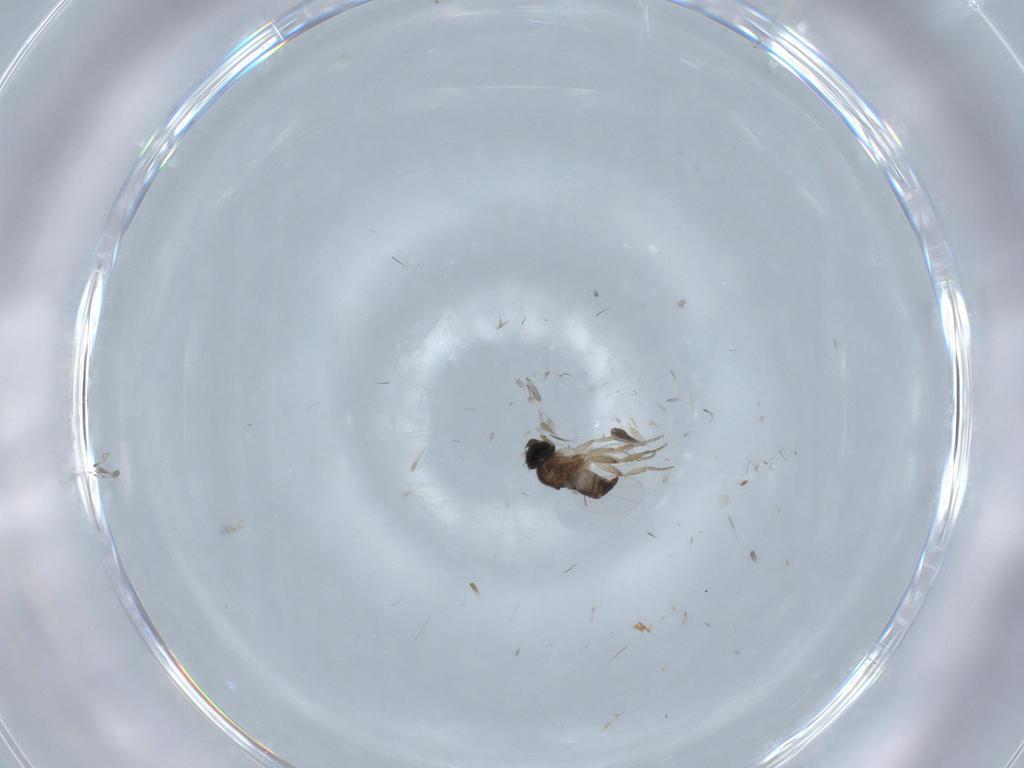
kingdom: Animalia
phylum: Arthropoda
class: Insecta
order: Diptera
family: Phoridae
